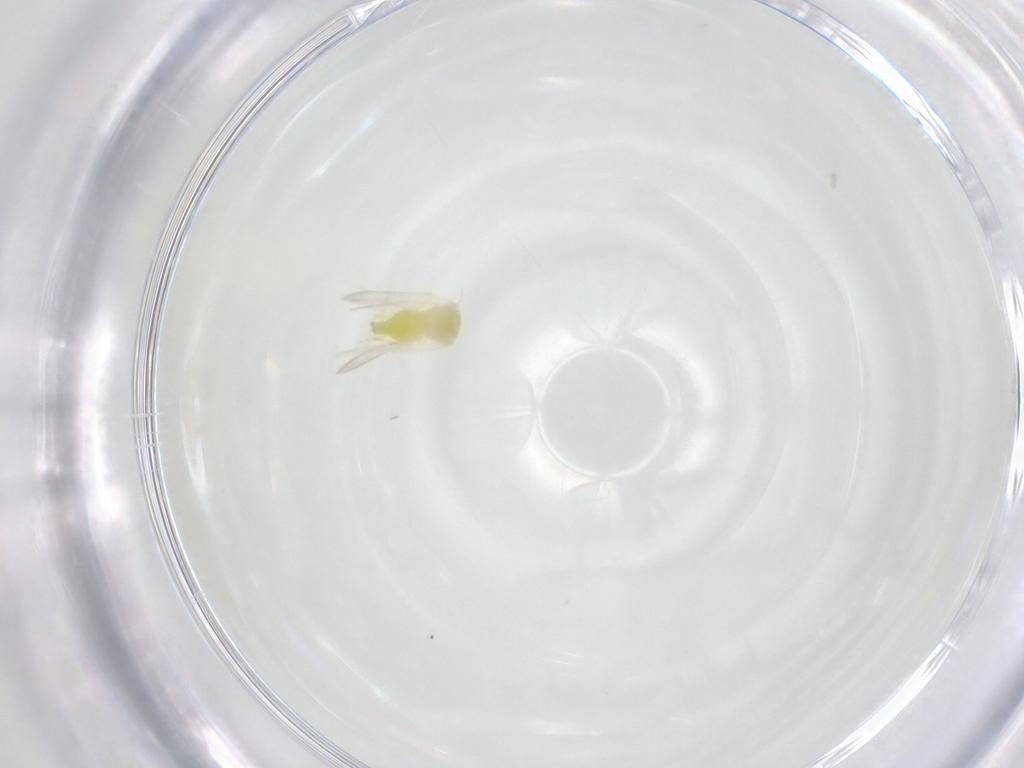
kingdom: Animalia
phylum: Arthropoda
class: Insecta
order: Hemiptera
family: Aleyrodidae
